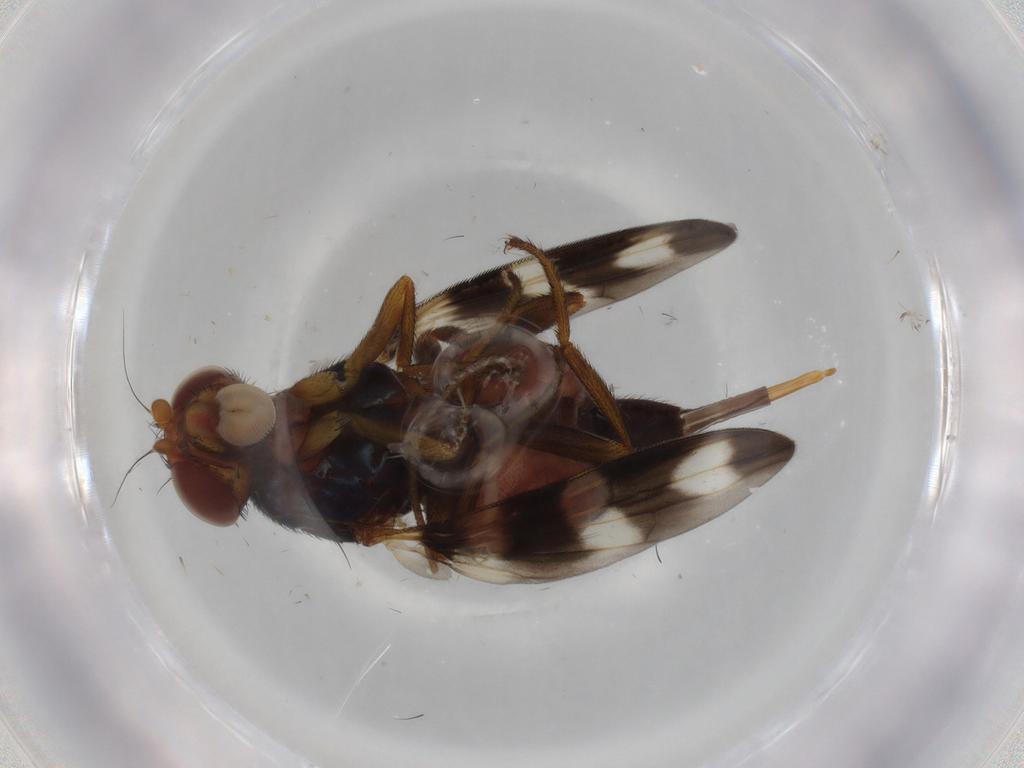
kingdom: Animalia
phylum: Arthropoda
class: Insecta
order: Diptera
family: Ulidiidae
